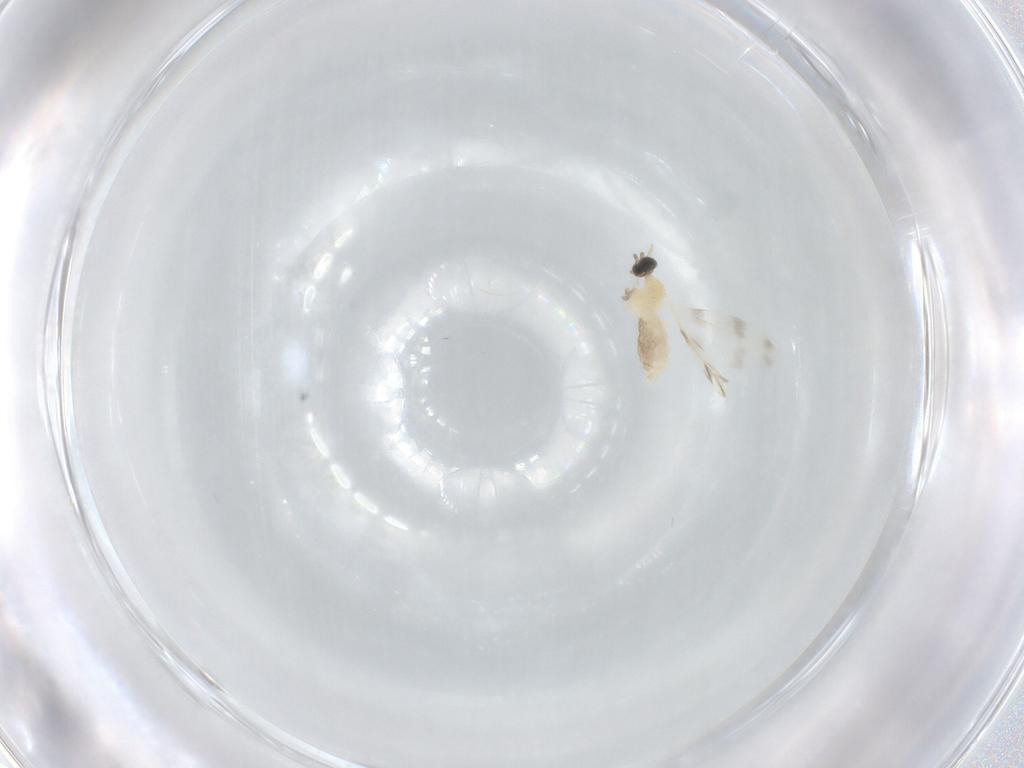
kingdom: Animalia
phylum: Arthropoda
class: Insecta
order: Diptera
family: Cecidomyiidae
